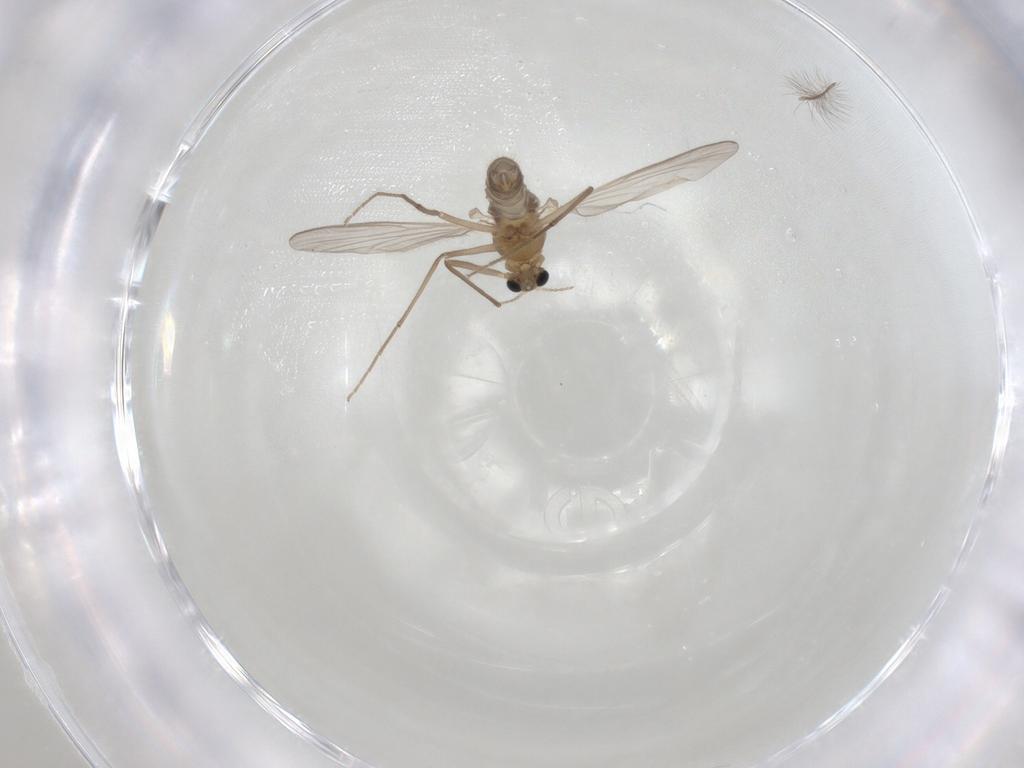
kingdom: Animalia
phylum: Arthropoda
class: Insecta
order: Diptera
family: Chironomidae
